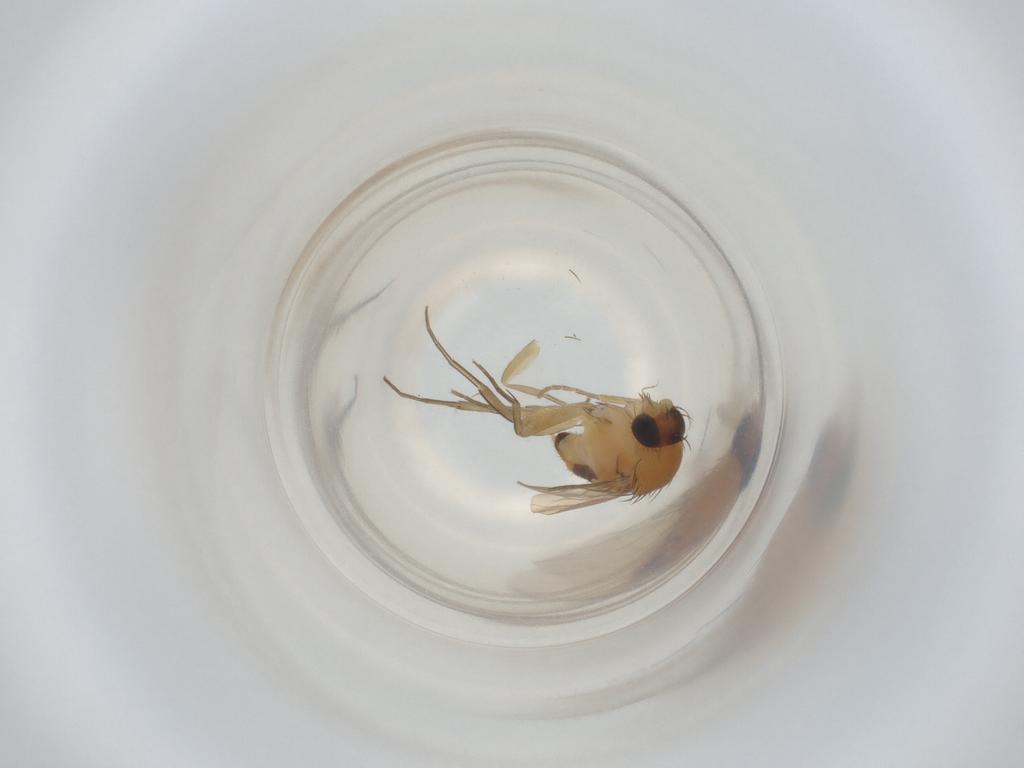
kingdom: Animalia
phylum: Arthropoda
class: Insecta
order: Diptera
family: Phoridae
